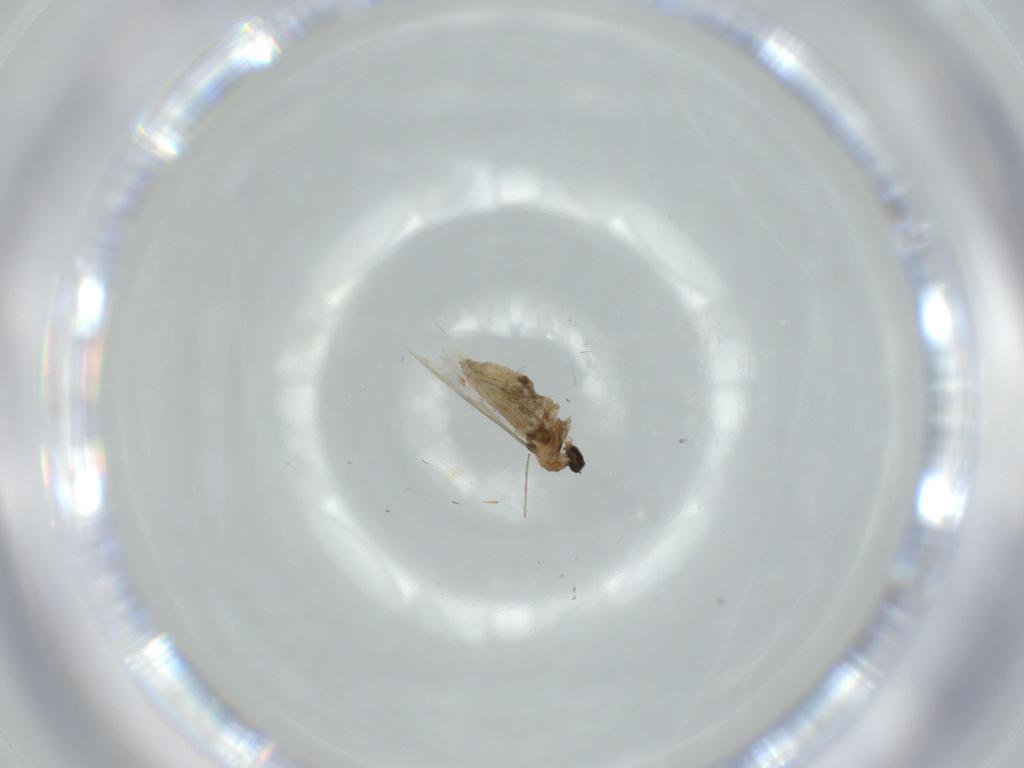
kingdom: Animalia
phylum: Arthropoda
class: Insecta
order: Diptera
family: Cecidomyiidae
